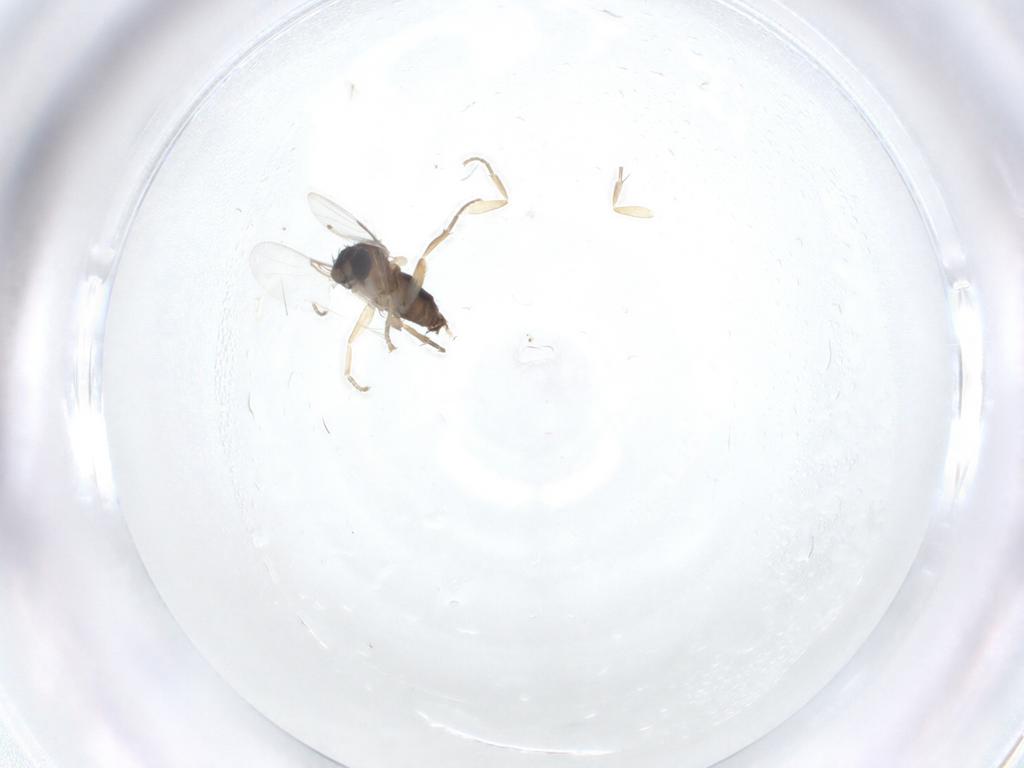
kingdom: Animalia
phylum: Arthropoda
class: Insecta
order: Diptera
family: Phoridae
